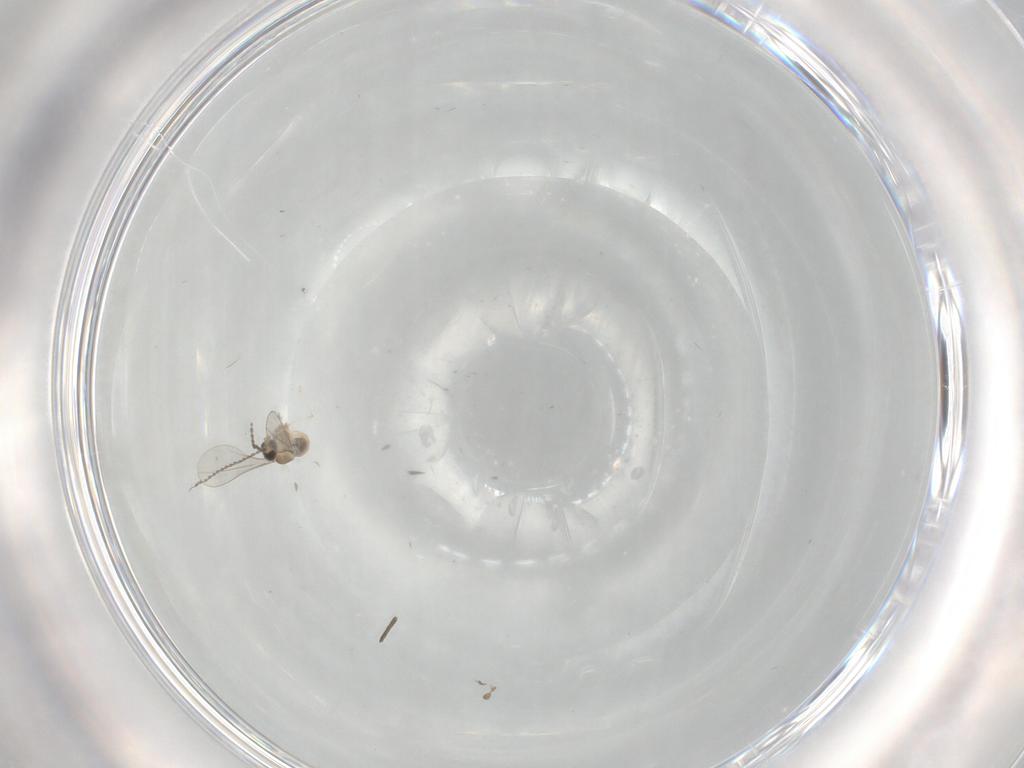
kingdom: Animalia
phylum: Arthropoda
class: Insecta
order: Diptera
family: Cecidomyiidae
